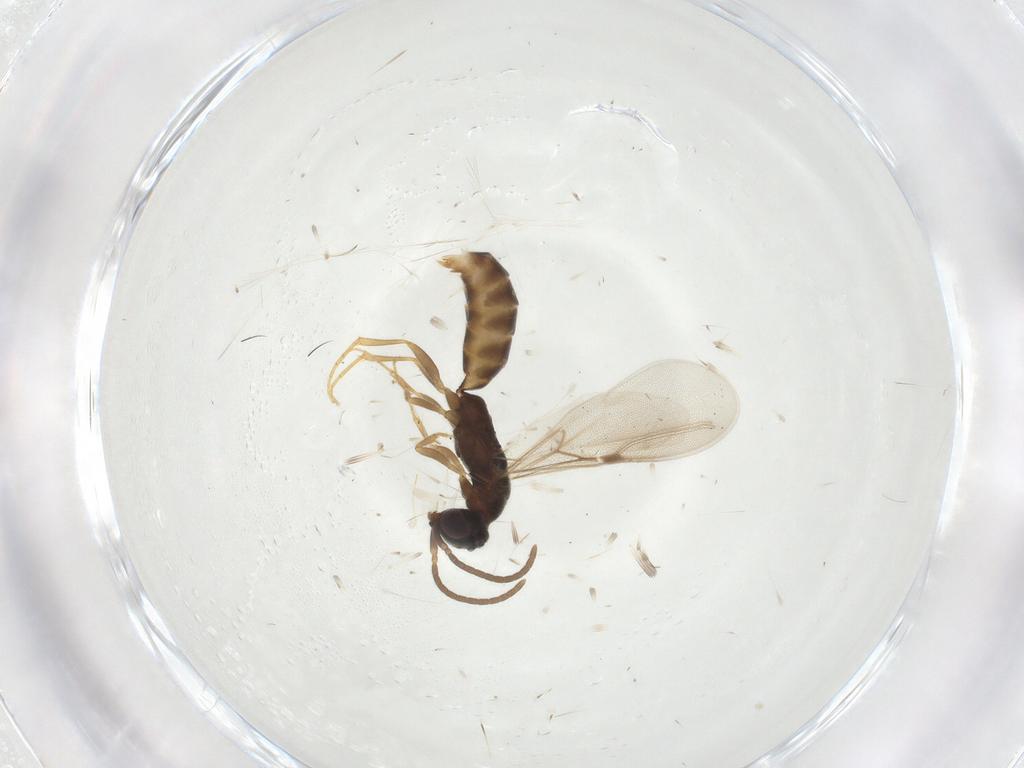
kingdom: Animalia
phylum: Arthropoda
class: Insecta
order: Hymenoptera
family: Bethylidae
